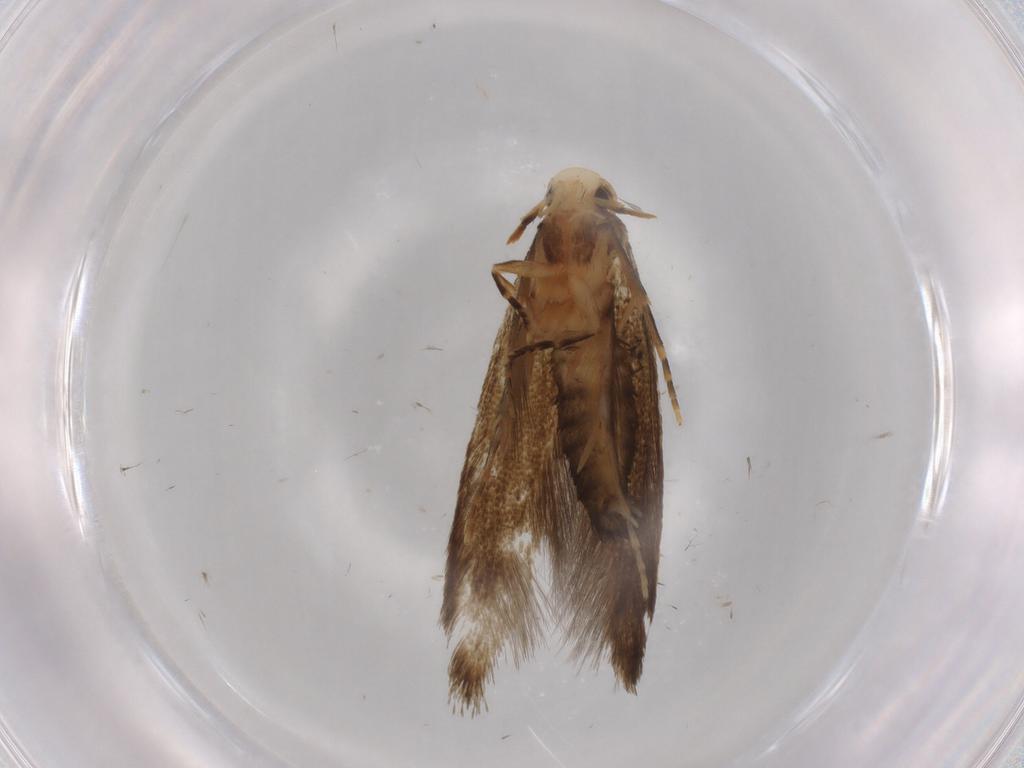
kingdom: Animalia
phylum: Arthropoda
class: Insecta
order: Lepidoptera
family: Tineidae
